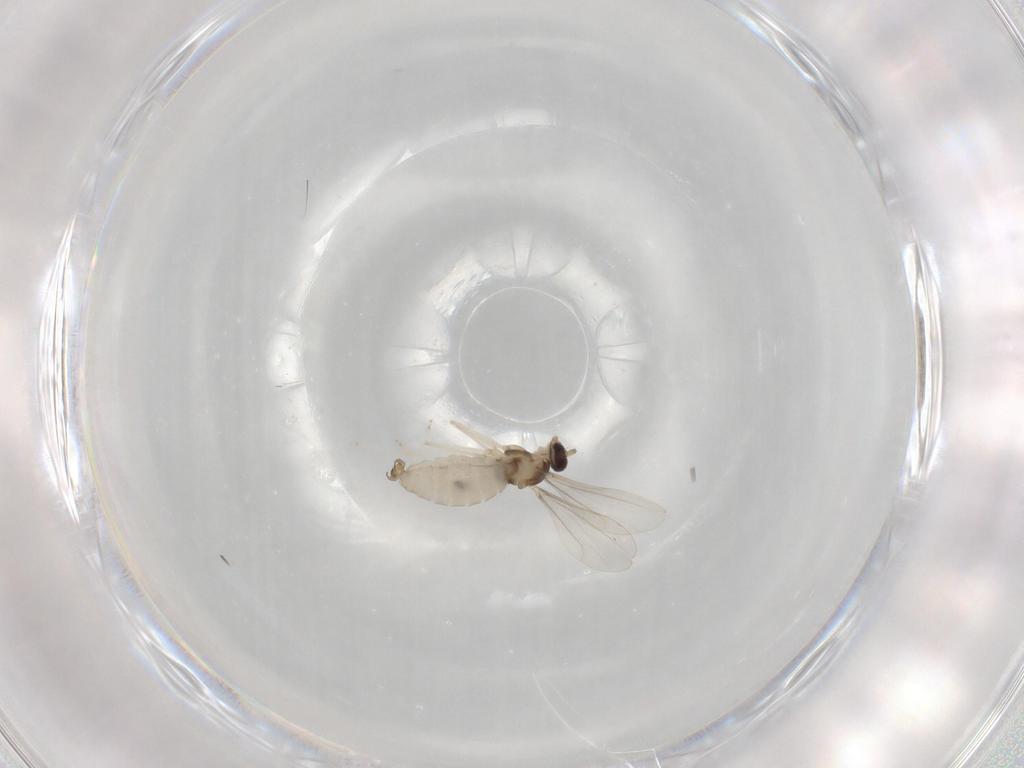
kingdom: Animalia
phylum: Arthropoda
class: Insecta
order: Diptera
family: Cecidomyiidae
